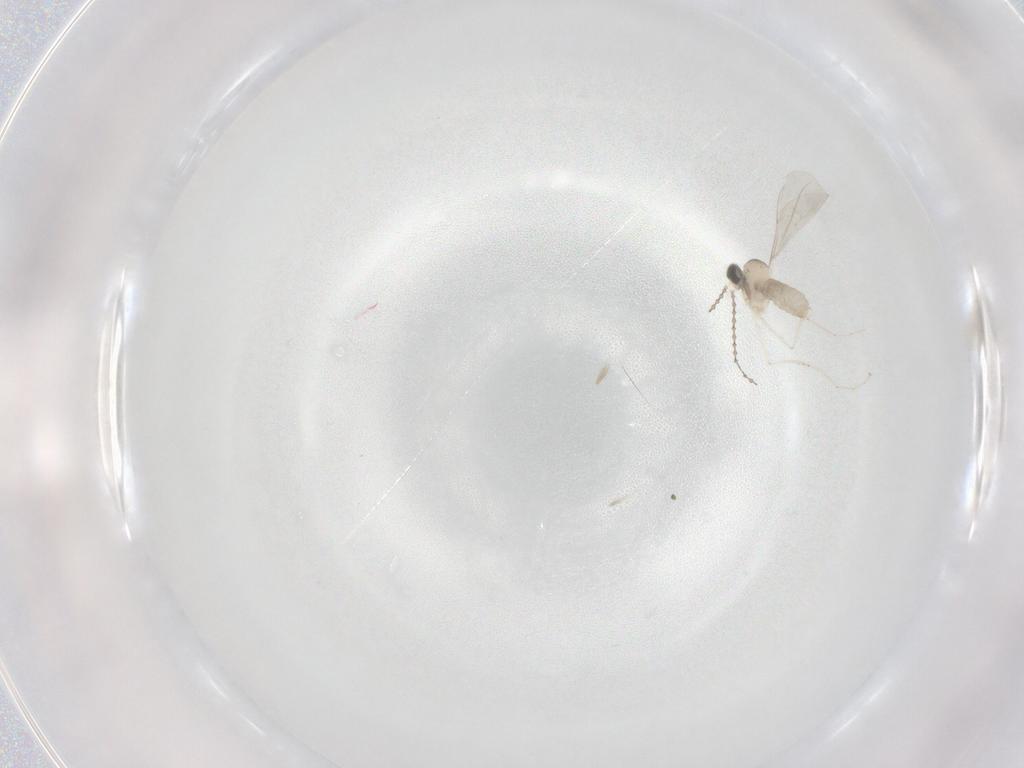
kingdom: Animalia
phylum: Arthropoda
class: Insecta
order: Diptera
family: Cecidomyiidae
